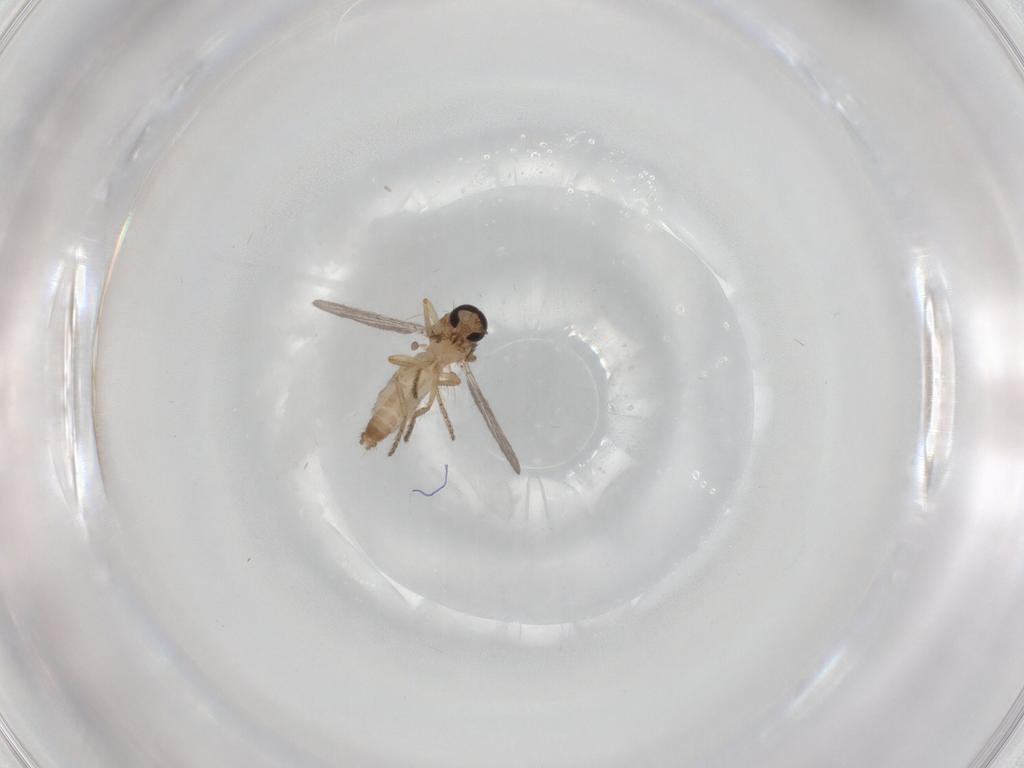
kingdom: Animalia
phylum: Arthropoda
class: Insecta
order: Diptera
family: Ceratopogonidae
